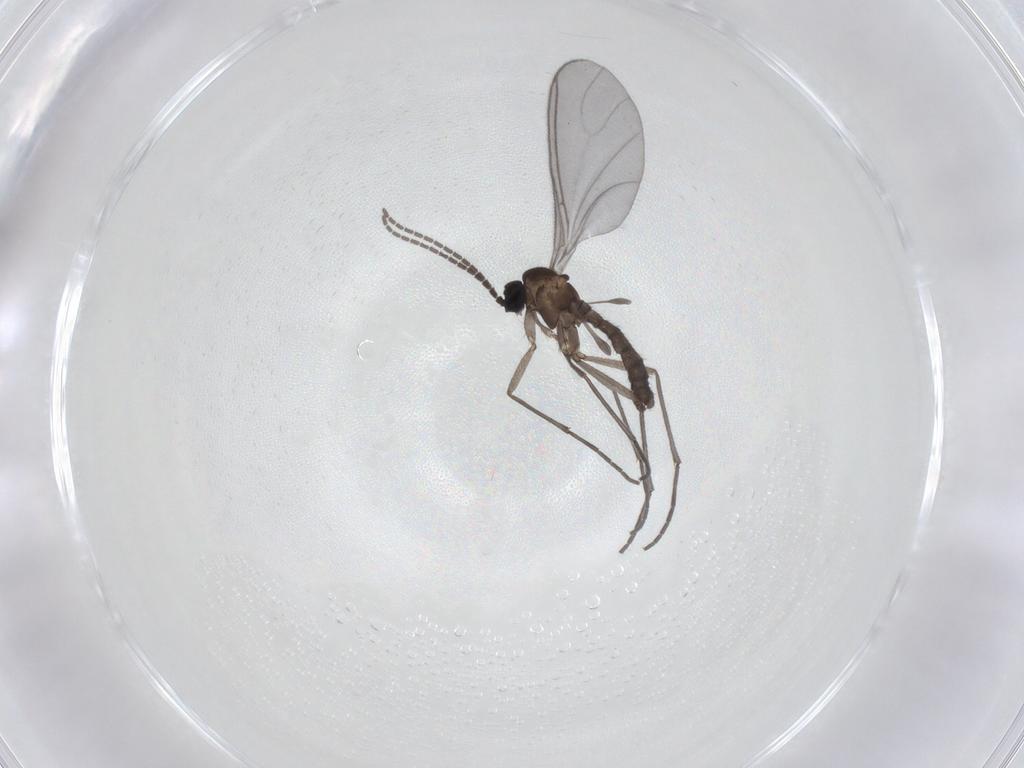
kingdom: Animalia
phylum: Arthropoda
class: Insecta
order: Diptera
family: Sciaridae
